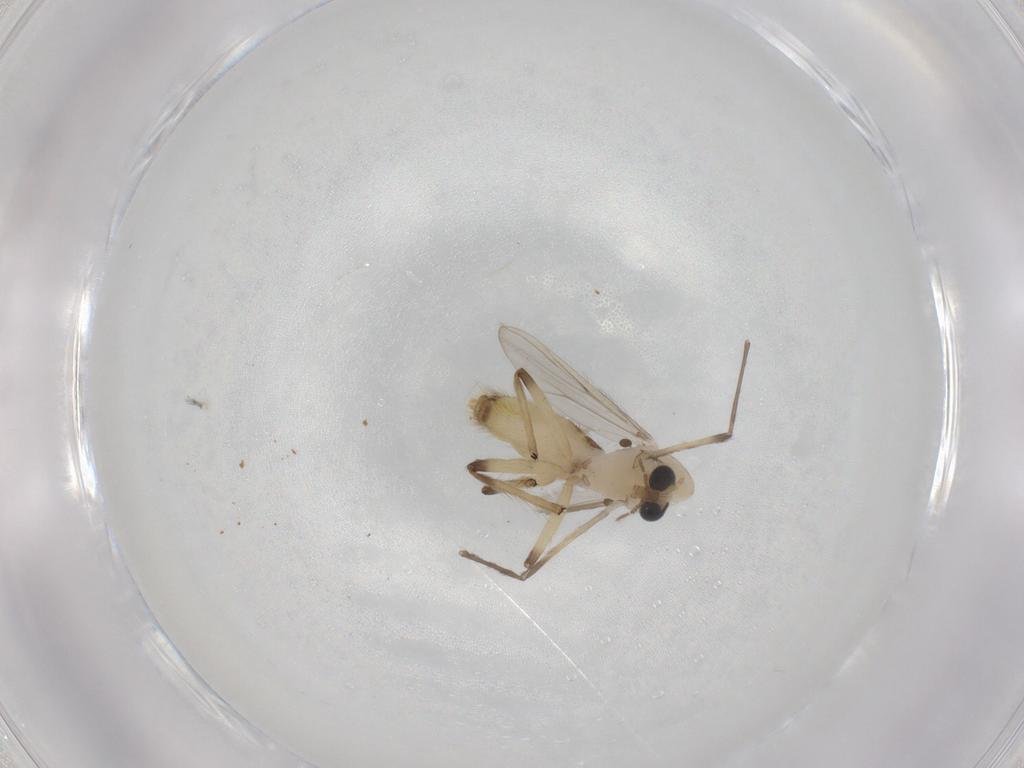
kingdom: Animalia
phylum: Arthropoda
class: Insecta
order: Diptera
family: Chironomidae
